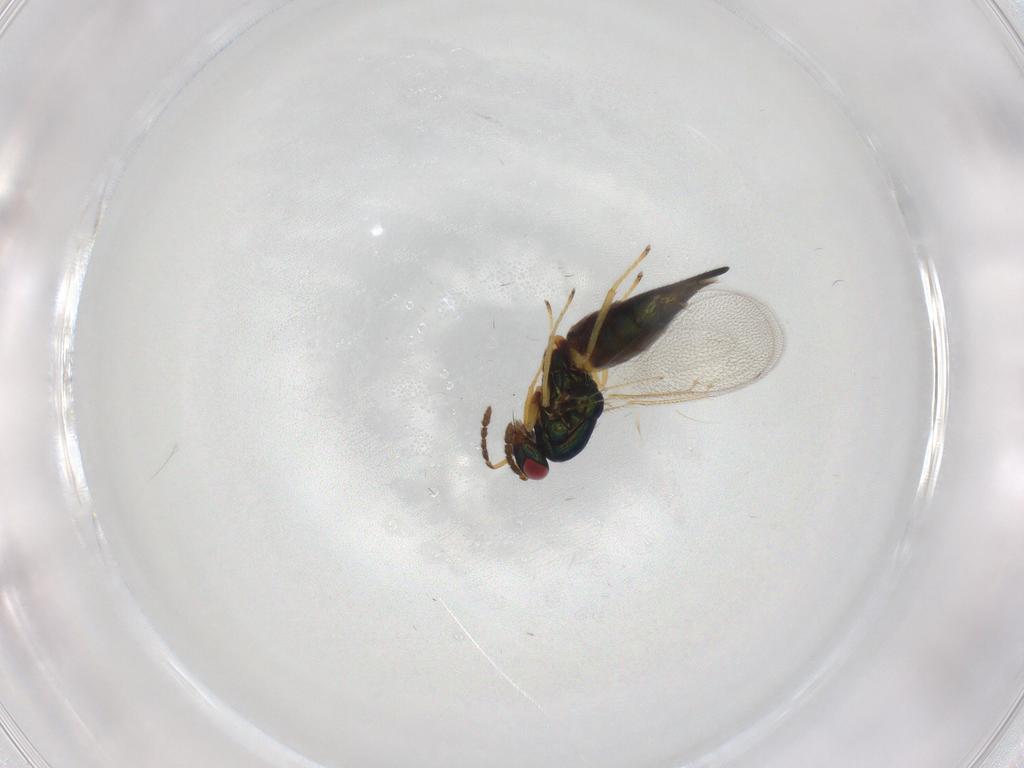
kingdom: Animalia
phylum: Arthropoda
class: Insecta
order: Hymenoptera
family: Eulophidae
